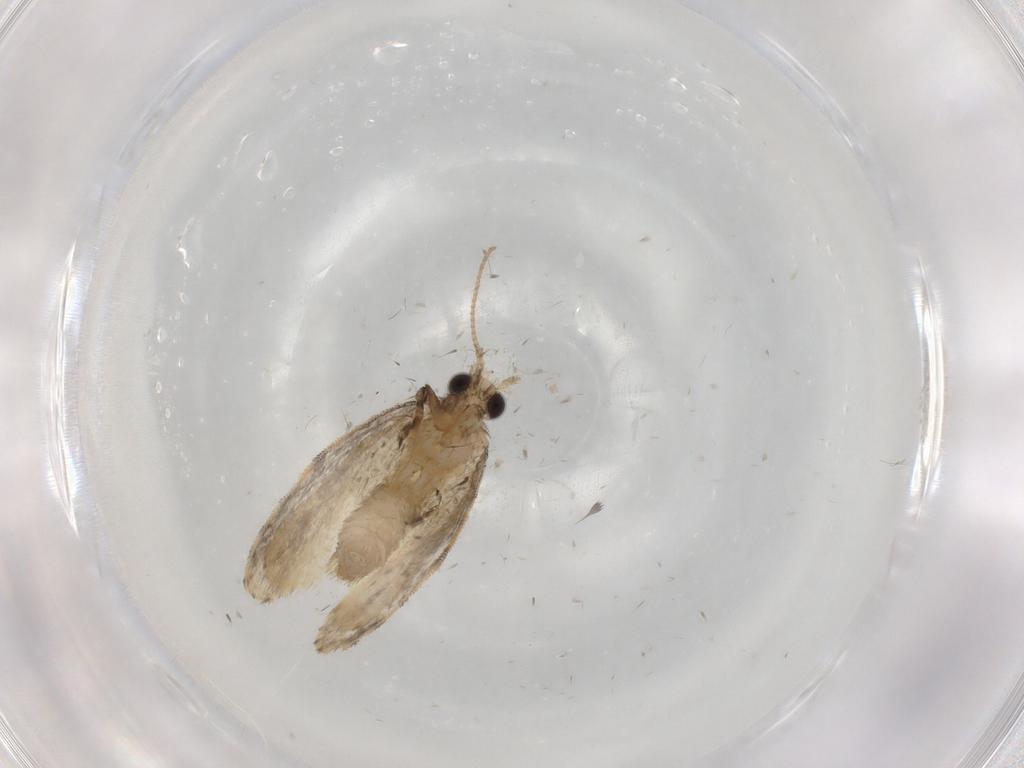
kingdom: Animalia
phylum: Arthropoda
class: Insecta
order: Lepidoptera
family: Psychidae
